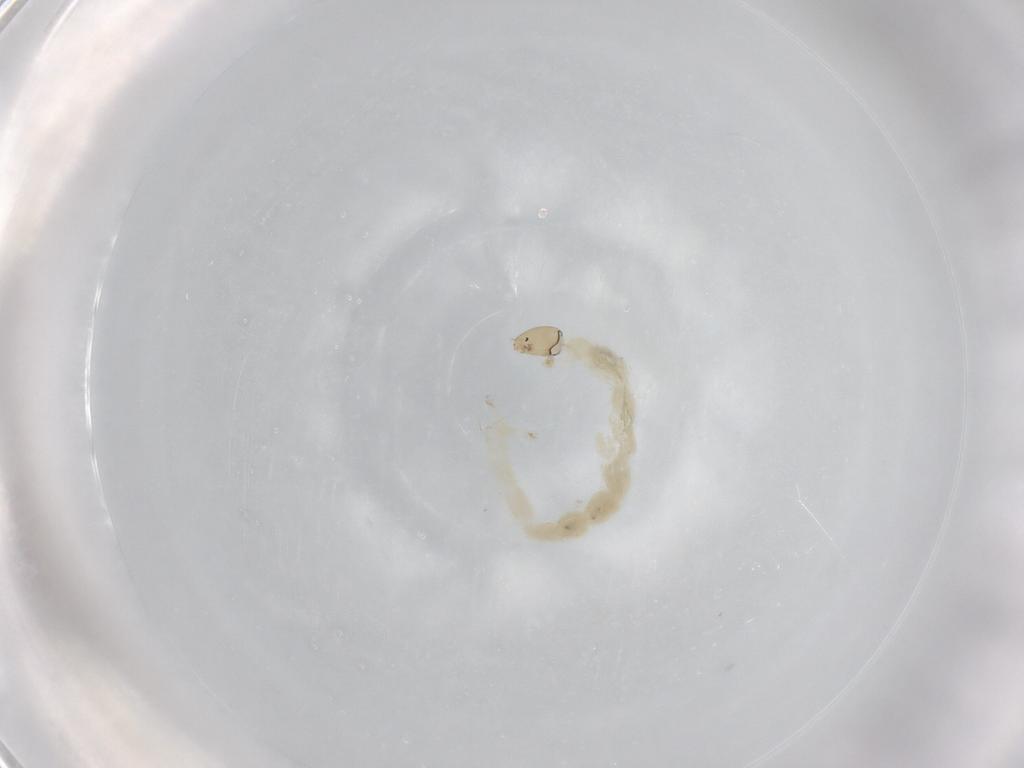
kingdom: Animalia
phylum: Arthropoda
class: Insecta
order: Diptera
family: Chironomidae
